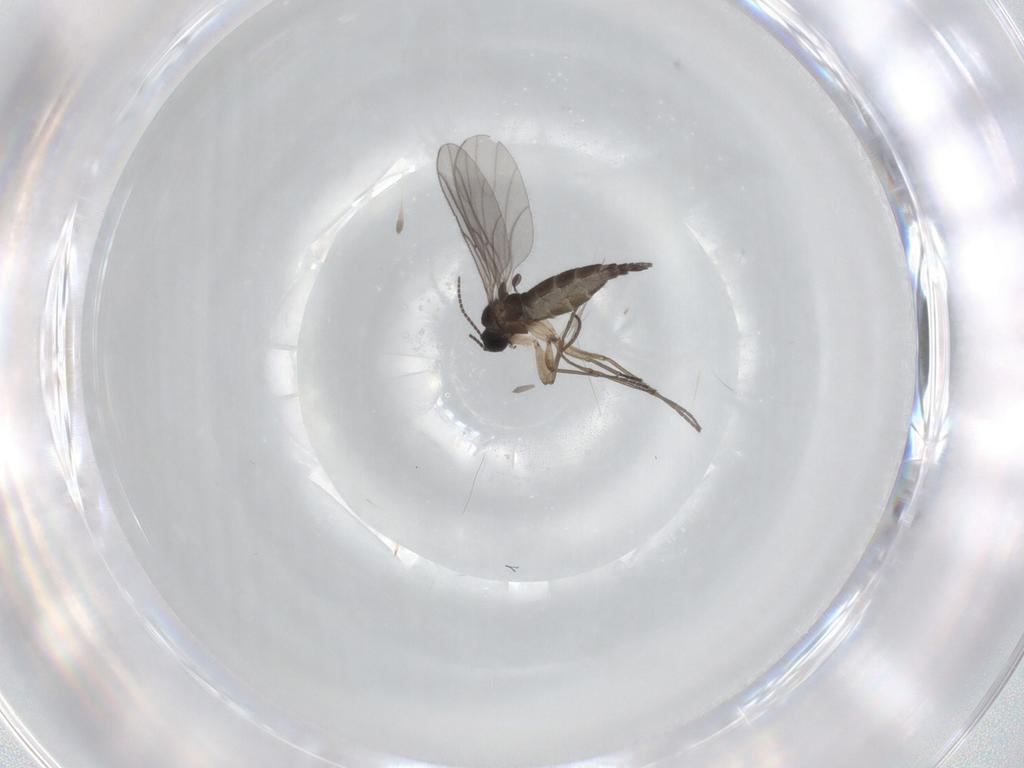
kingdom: Animalia
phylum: Arthropoda
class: Insecta
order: Diptera
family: Sciaridae
